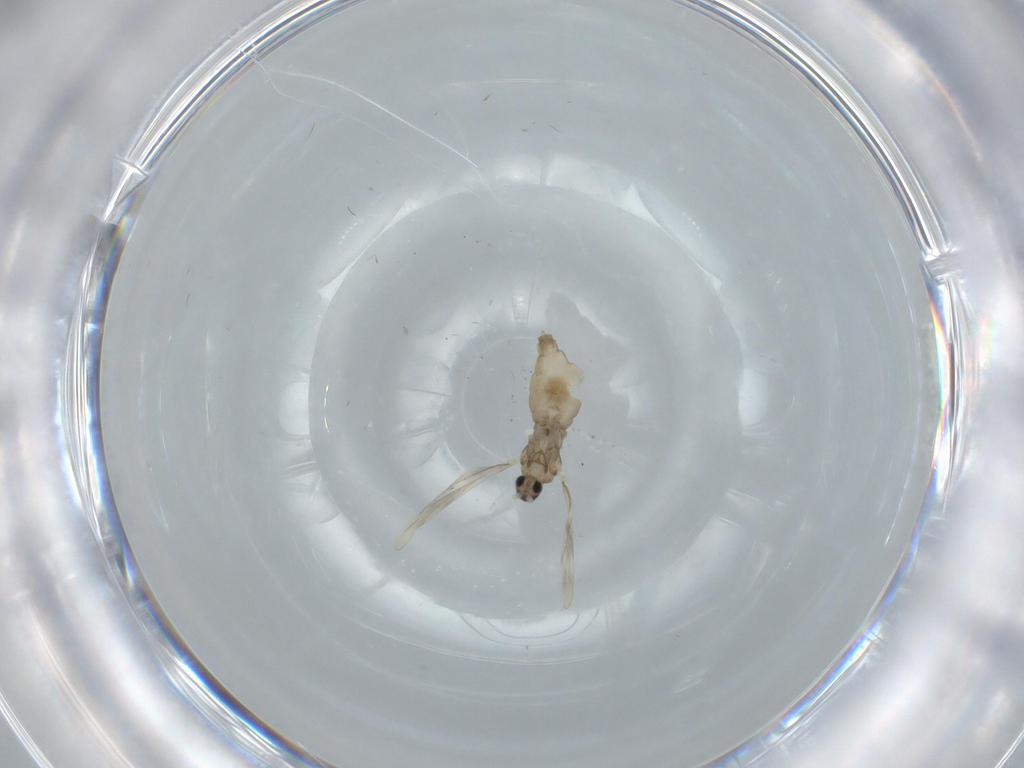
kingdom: Animalia
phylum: Arthropoda
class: Insecta
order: Diptera
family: Cecidomyiidae
